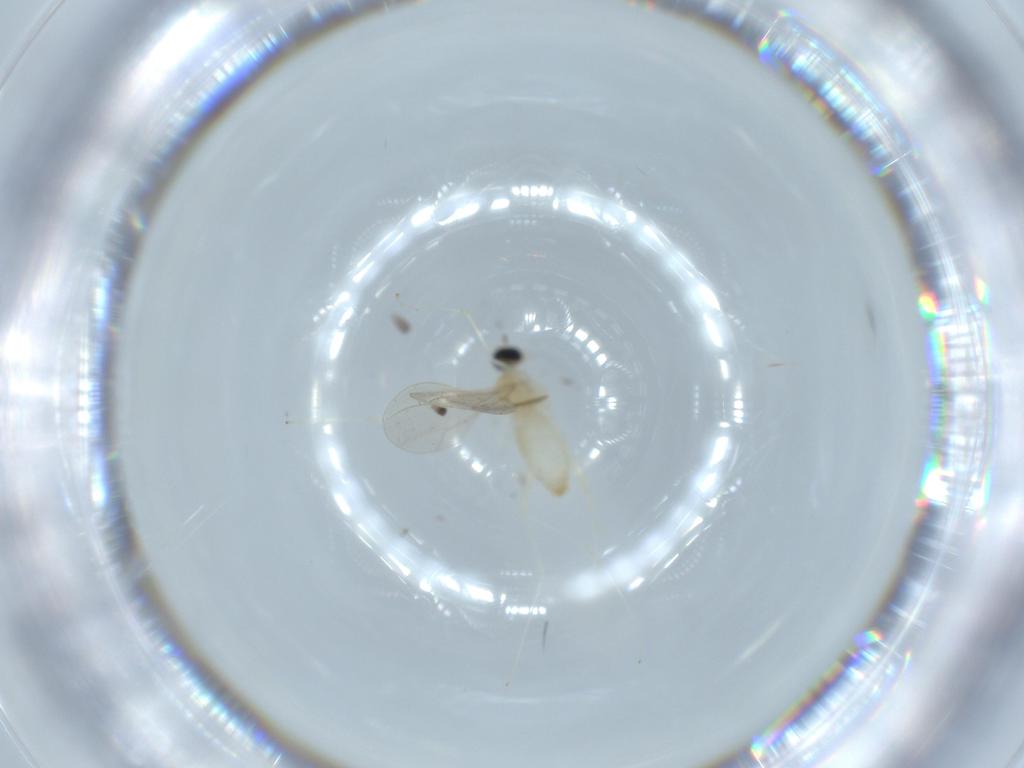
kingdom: Animalia
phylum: Arthropoda
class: Insecta
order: Diptera
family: Cecidomyiidae
